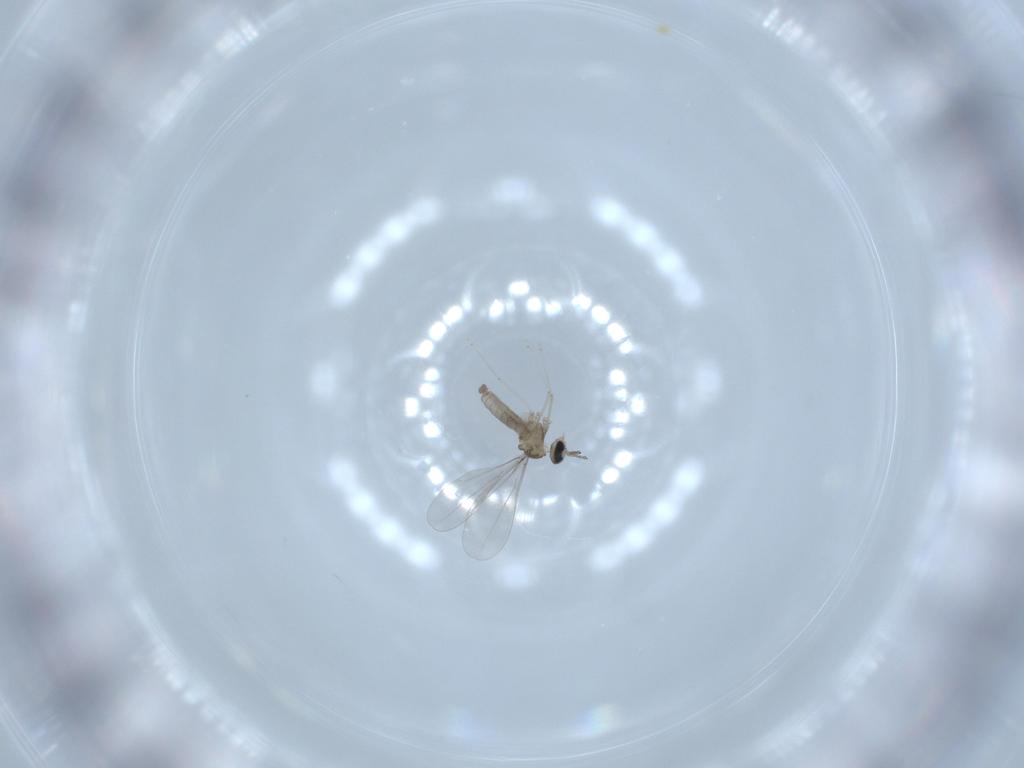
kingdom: Animalia
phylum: Arthropoda
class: Insecta
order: Diptera
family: Cecidomyiidae
